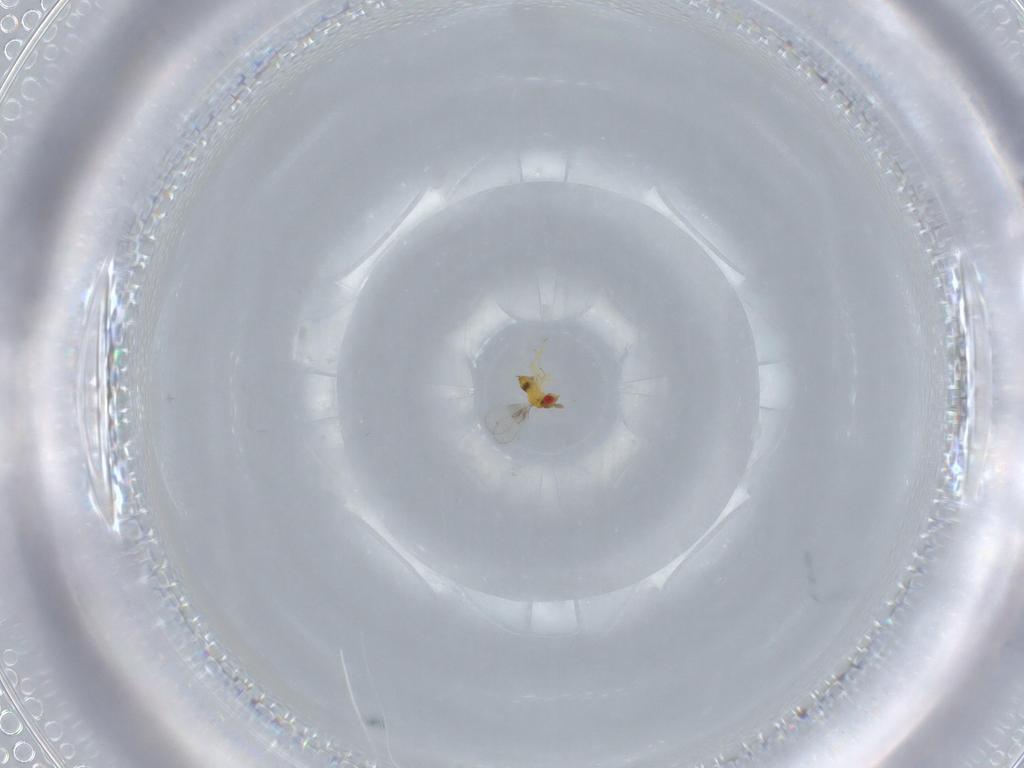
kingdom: Animalia
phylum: Arthropoda
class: Insecta
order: Hymenoptera
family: Trichogrammatidae
